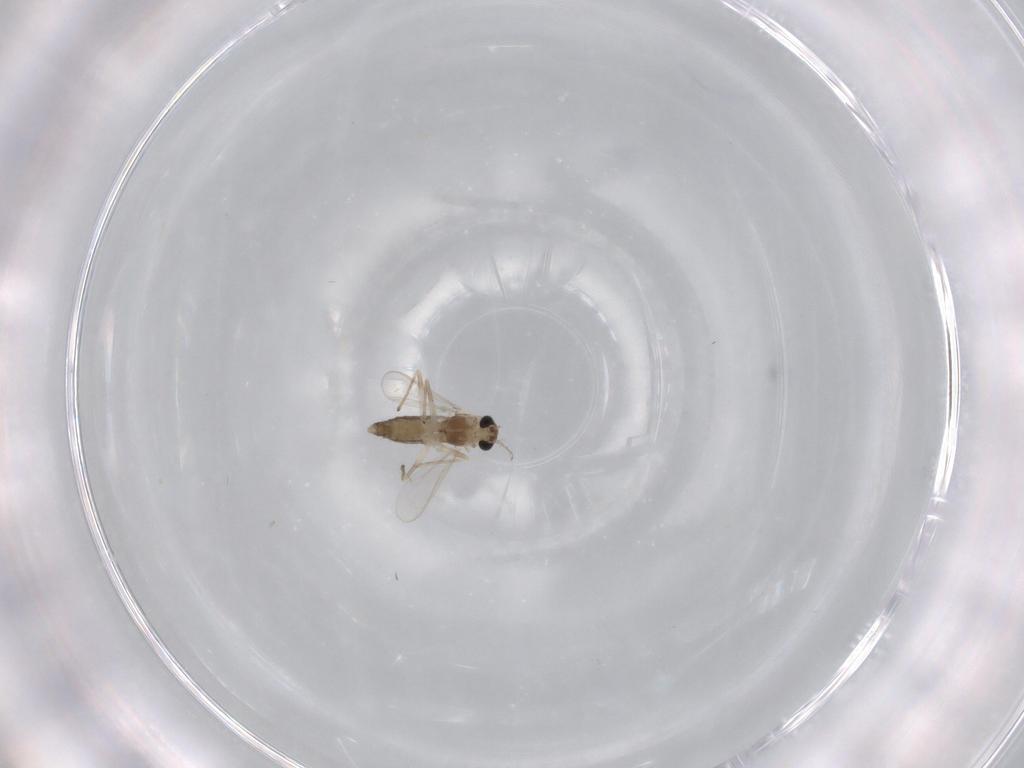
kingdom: Animalia
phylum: Arthropoda
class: Insecta
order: Diptera
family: Chironomidae
